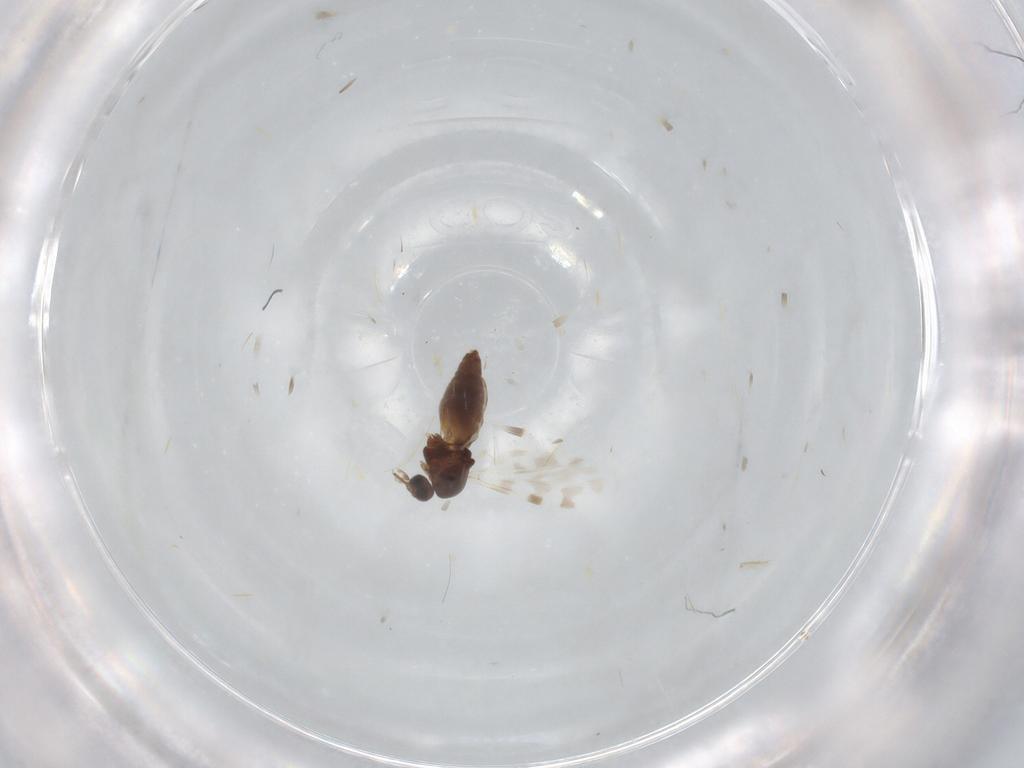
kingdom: Animalia
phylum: Arthropoda
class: Insecta
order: Diptera
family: Ceratopogonidae
